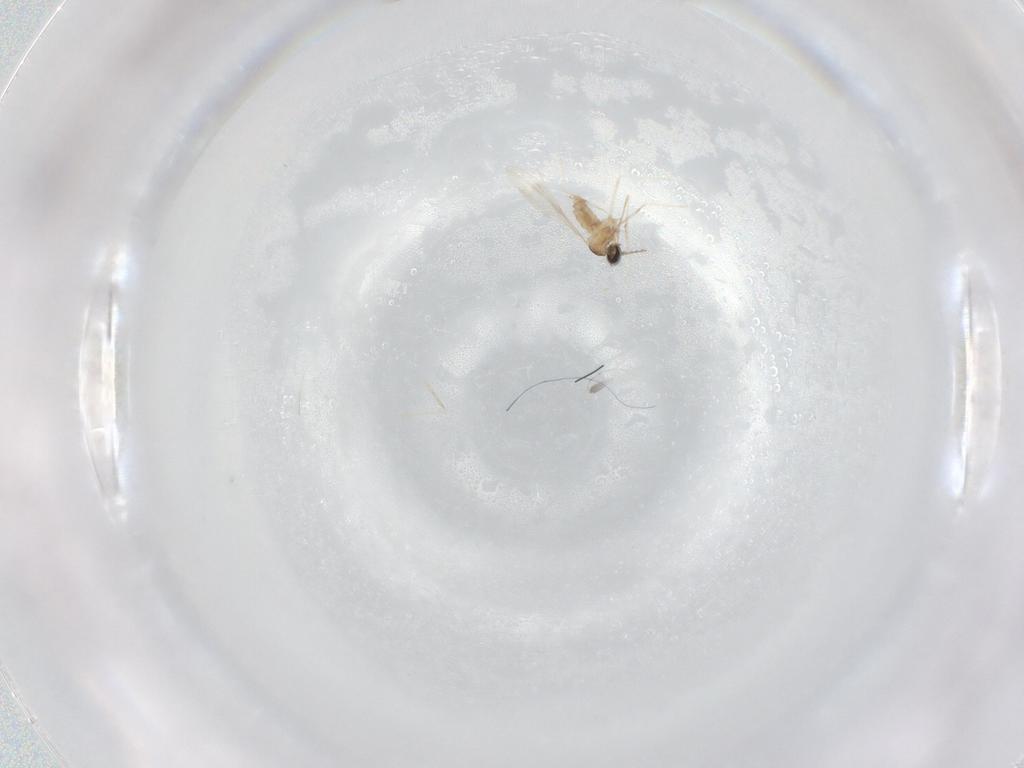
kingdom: Animalia
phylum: Arthropoda
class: Insecta
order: Diptera
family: Cecidomyiidae
